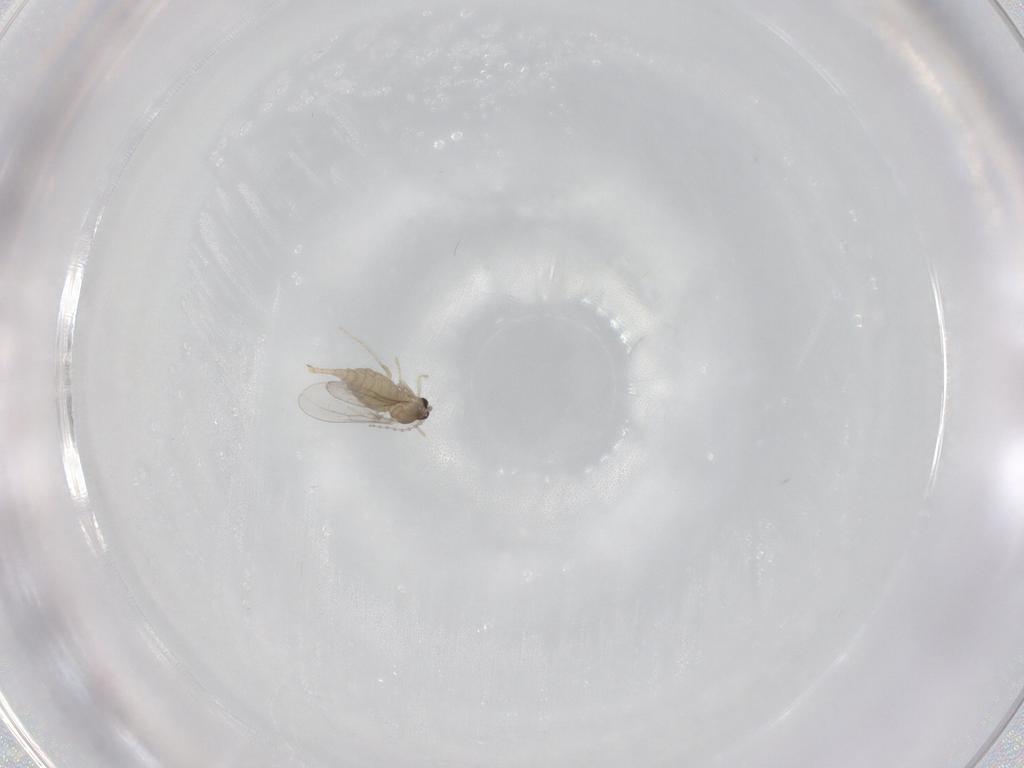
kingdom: Animalia
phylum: Arthropoda
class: Insecta
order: Diptera
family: Cecidomyiidae
